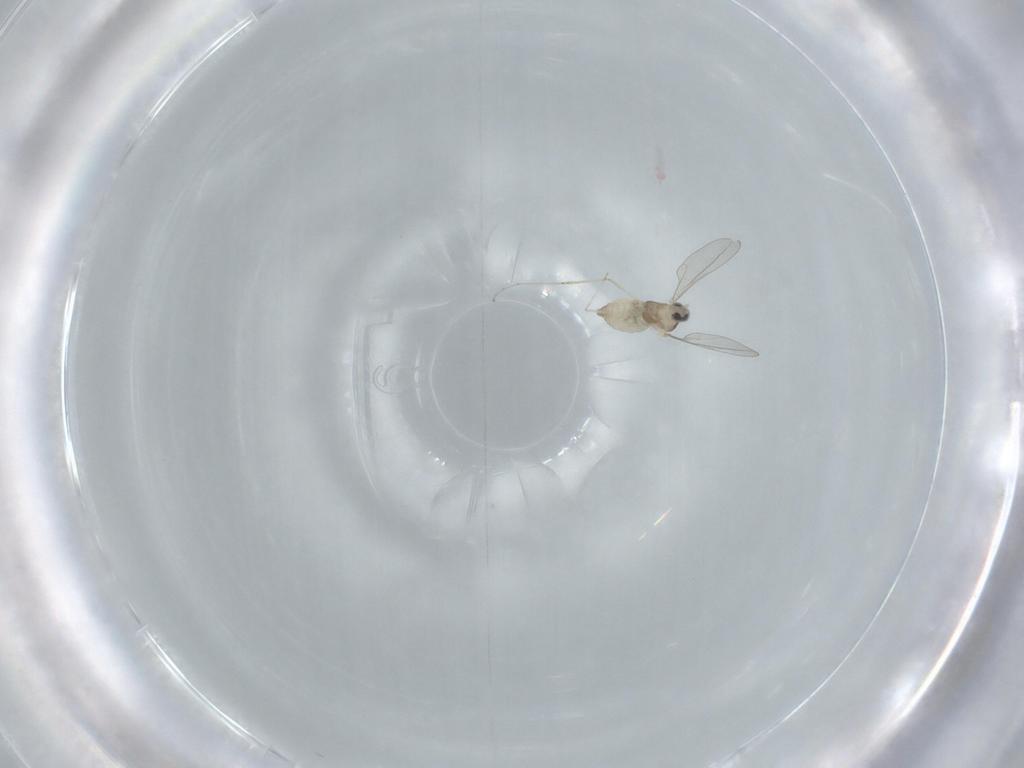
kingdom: Animalia
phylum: Arthropoda
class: Insecta
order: Diptera
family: Cecidomyiidae
